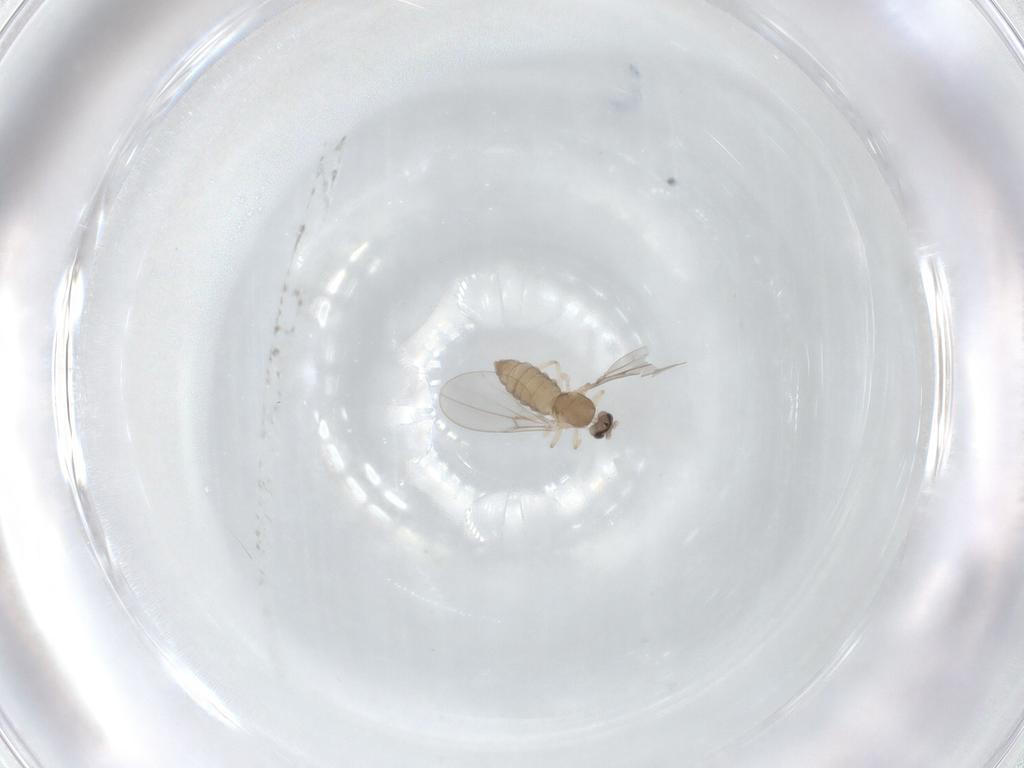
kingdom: Animalia
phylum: Arthropoda
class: Insecta
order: Diptera
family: Cecidomyiidae
